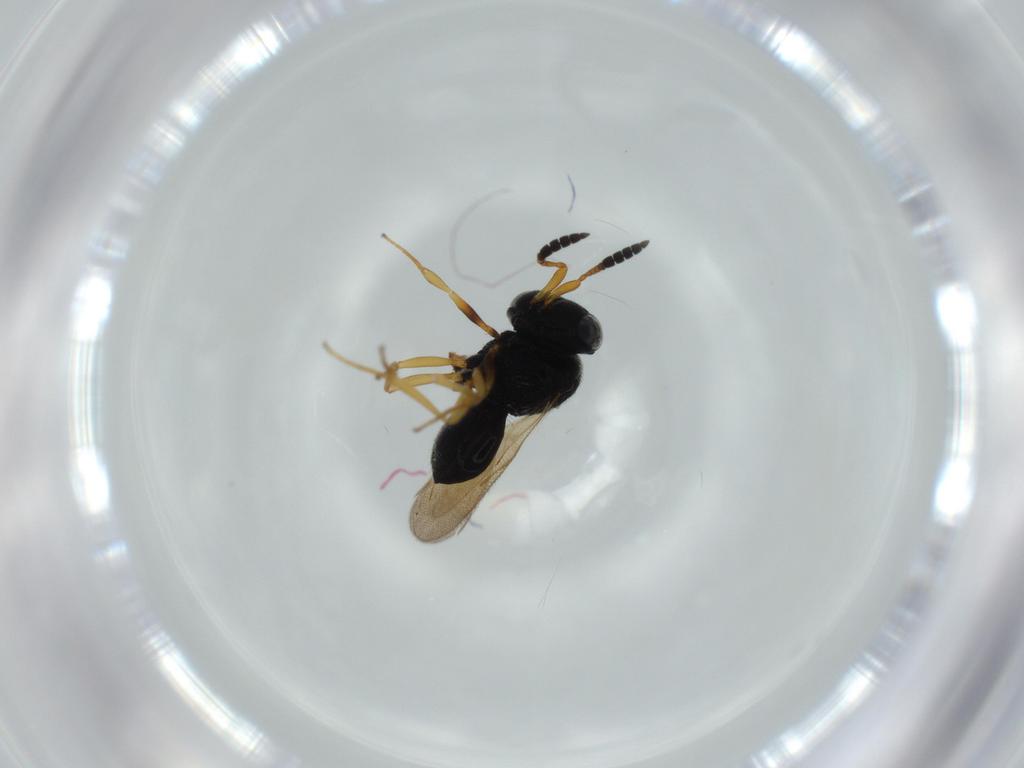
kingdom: Animalia
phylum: Arthropoda
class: Insecta
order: Hymenoptera
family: Scelionidae
